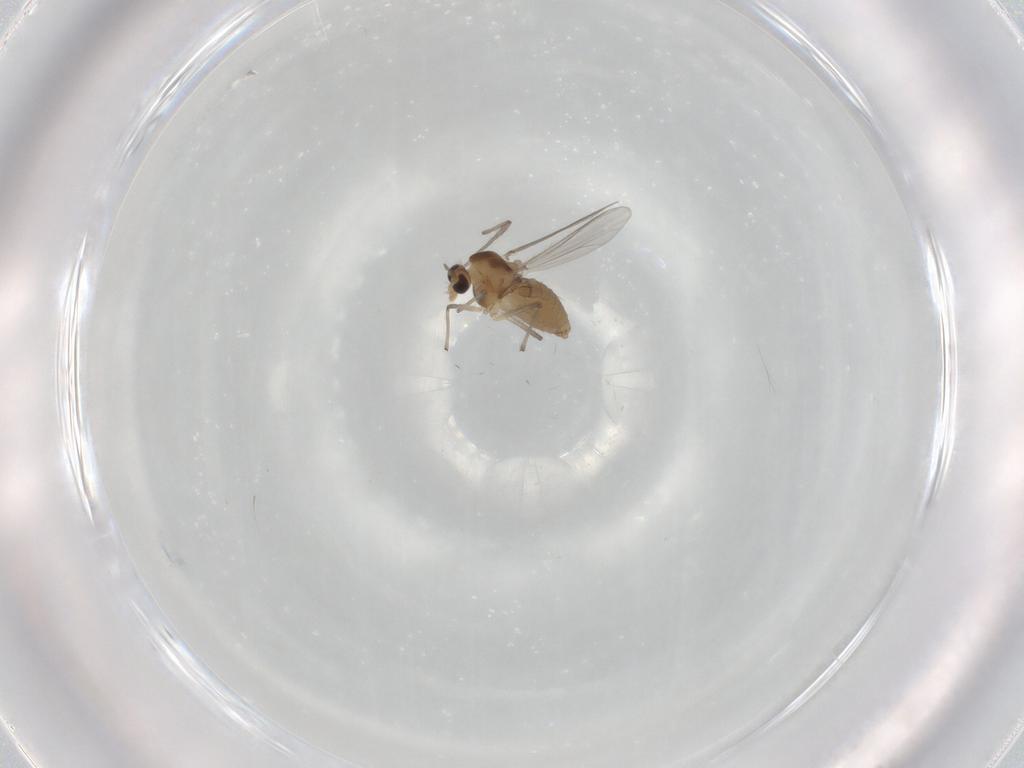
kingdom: Animalia
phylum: Arthropoda
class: Insecta
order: Diptera
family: Chironomidae
